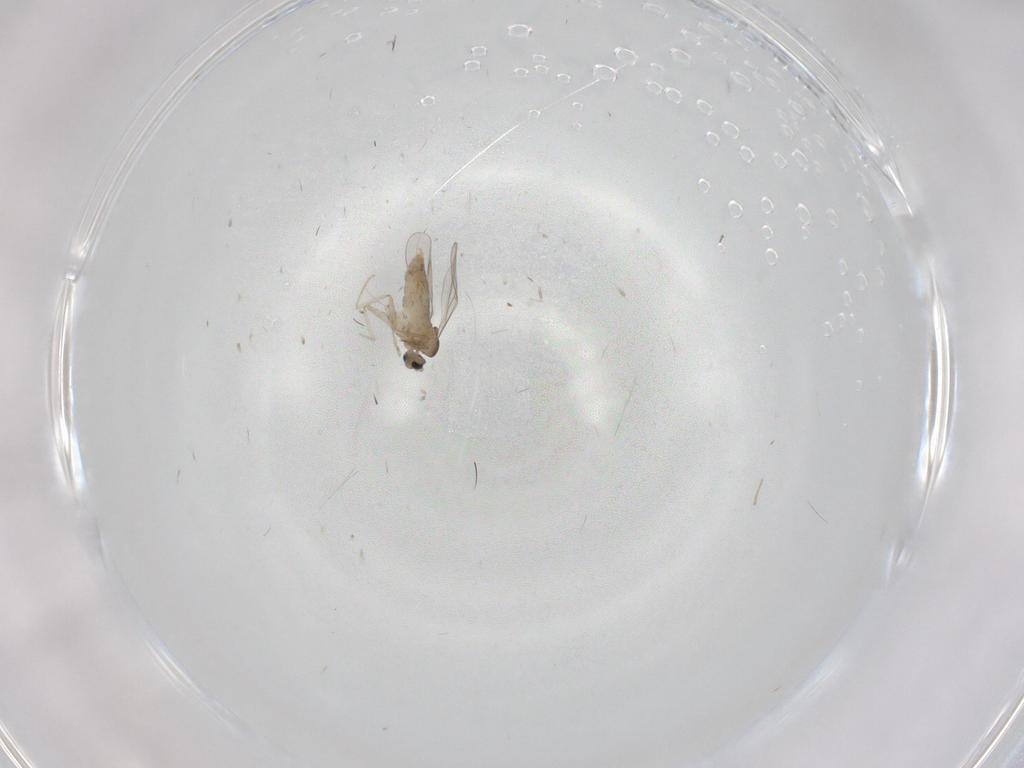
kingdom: Animalia
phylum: Arthropoda
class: Insecta
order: Diptera
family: Cecidomyiidae
